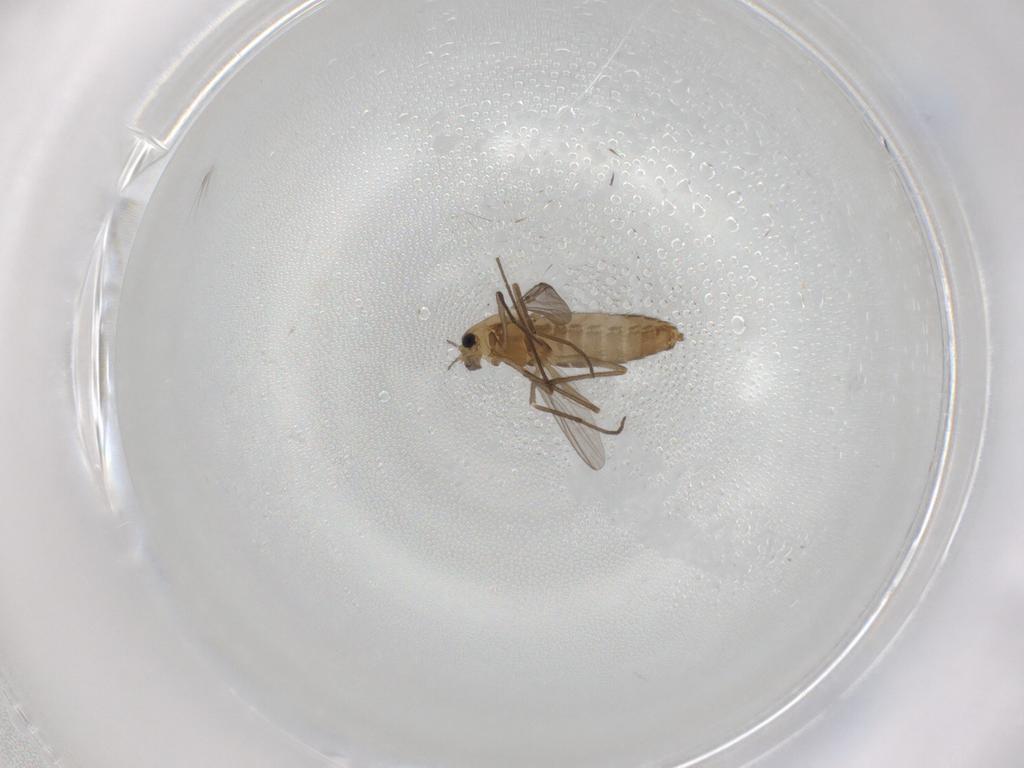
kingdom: Animalia
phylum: Arthropoda
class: Insecta
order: Diptera
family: Chironomidae
